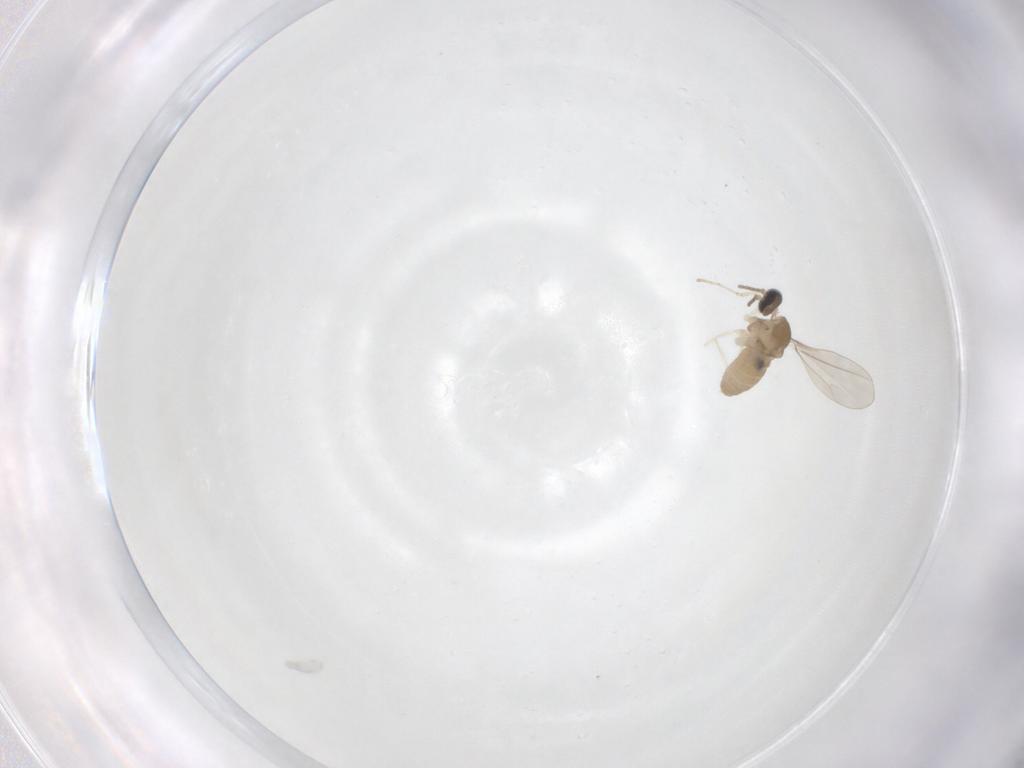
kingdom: Animalia
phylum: Arthropoda
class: Insecta
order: Diptera
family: Cecidomyiidae
